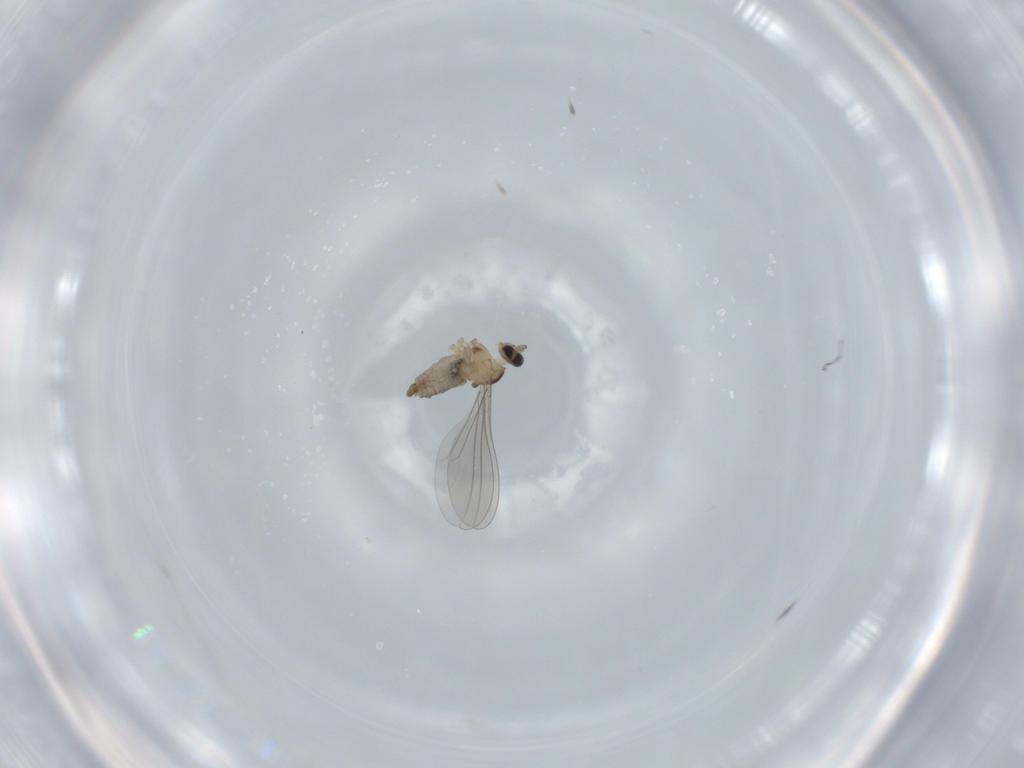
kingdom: Animalia
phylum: Arthropoda
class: Insecta
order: Diptera
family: Cecidomyiidae
